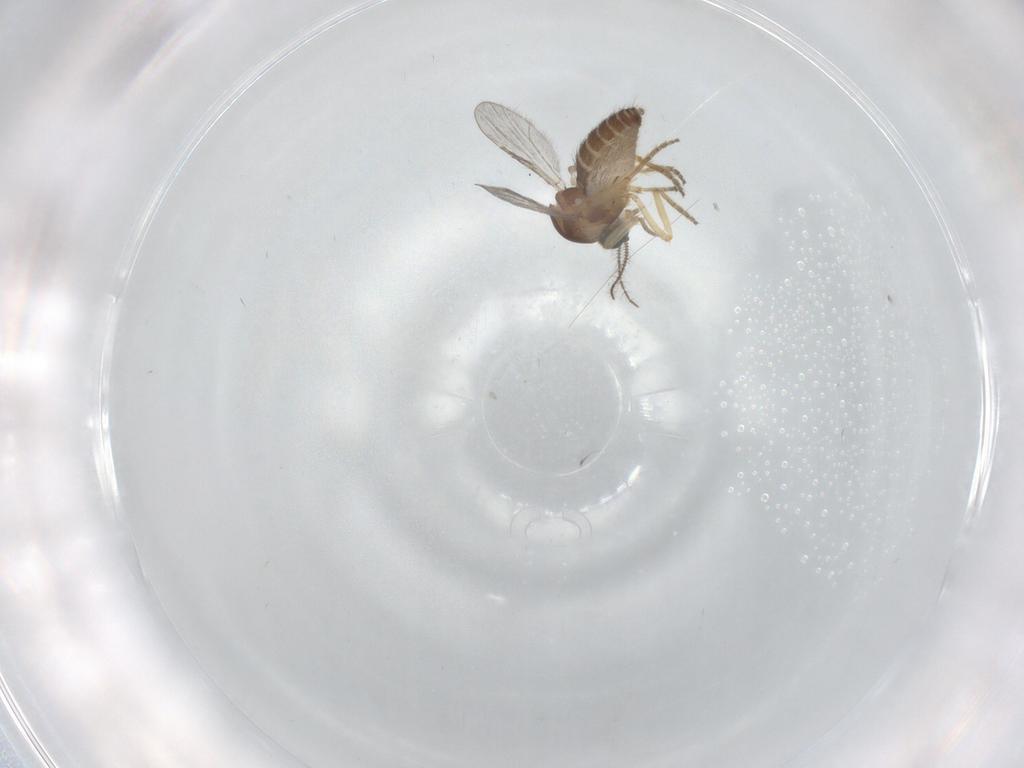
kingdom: Animalia
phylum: Arthropoda
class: Insecta
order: Diptera
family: Ceratopogonidae
